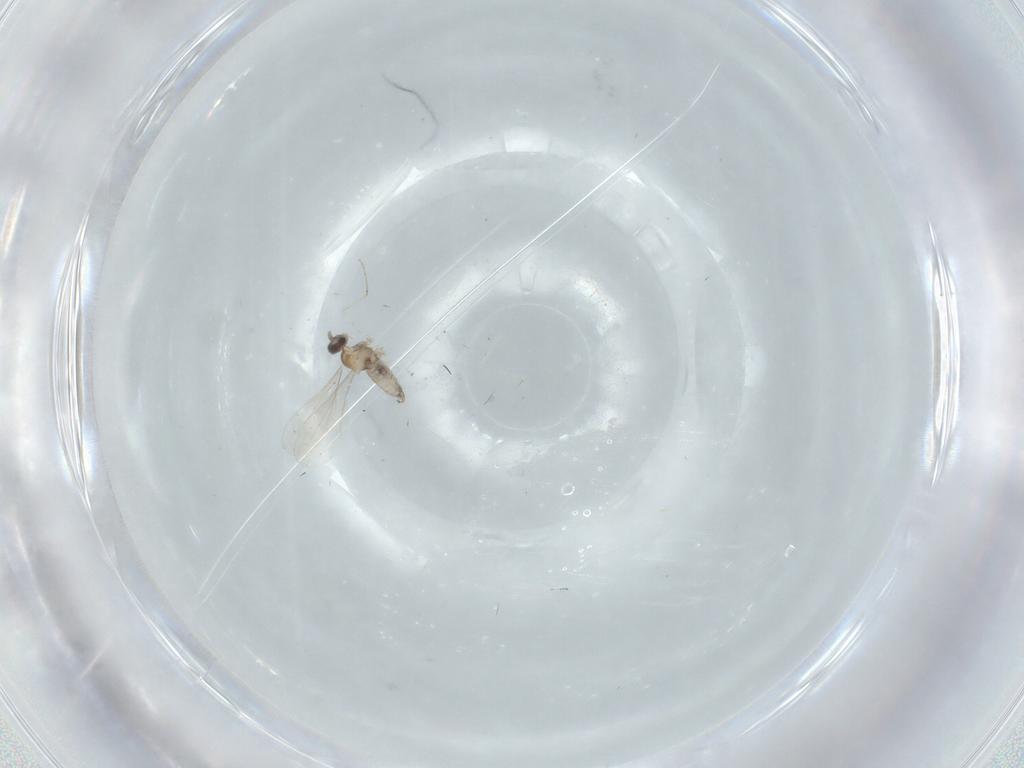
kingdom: Animalia
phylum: Arthropoda
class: Insecta
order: Diptera
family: Cecidomyiidae
